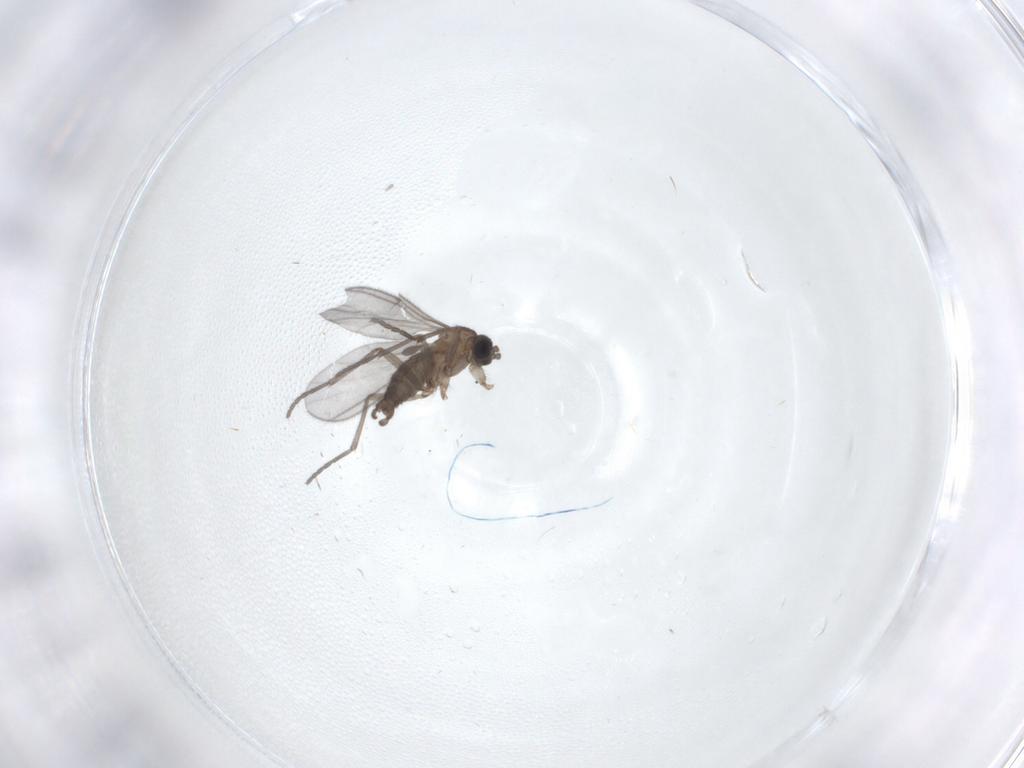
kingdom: Animalia
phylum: Arthropoda
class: Insecta
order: Diptera
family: Sciaridae
